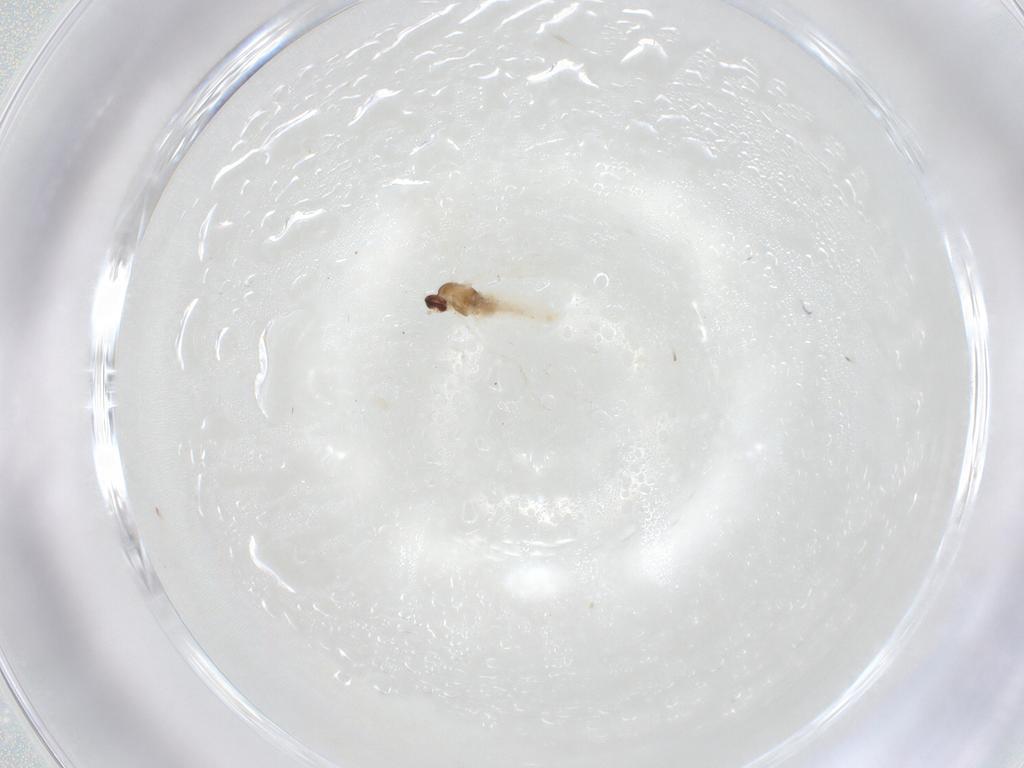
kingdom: Animalia
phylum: Arthropoda
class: Insecta
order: Diptera
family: Cecidomyiidae
